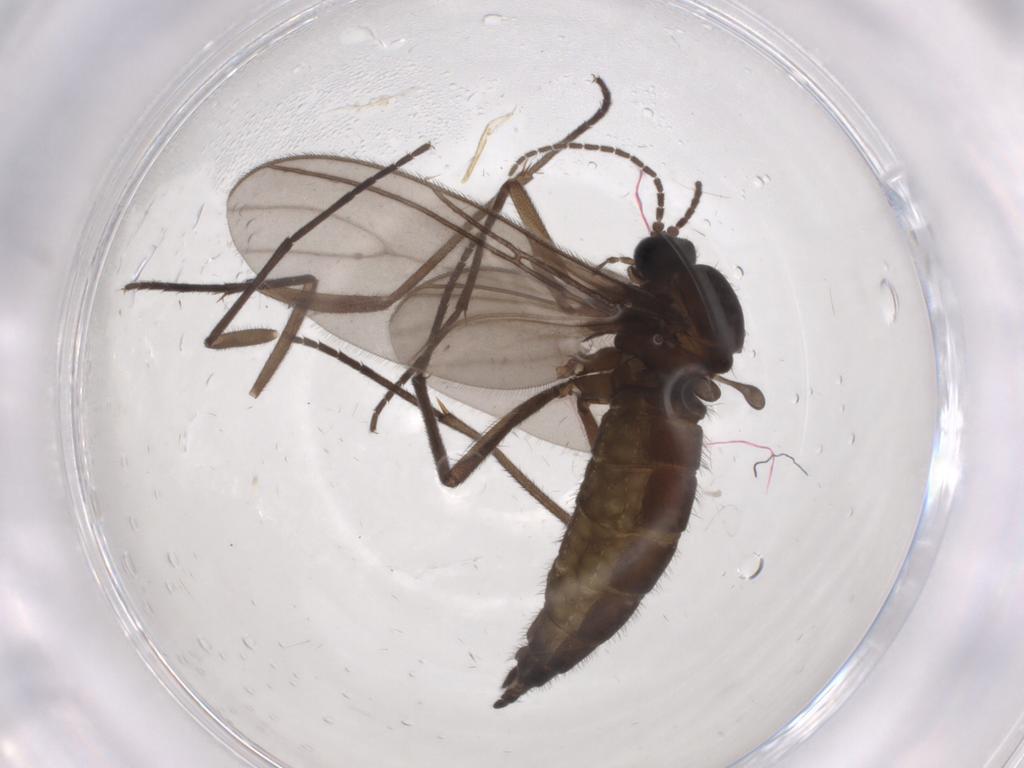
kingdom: Animalia
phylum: Arthropoda
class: Insecta
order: Diptera
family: Sciaridae
